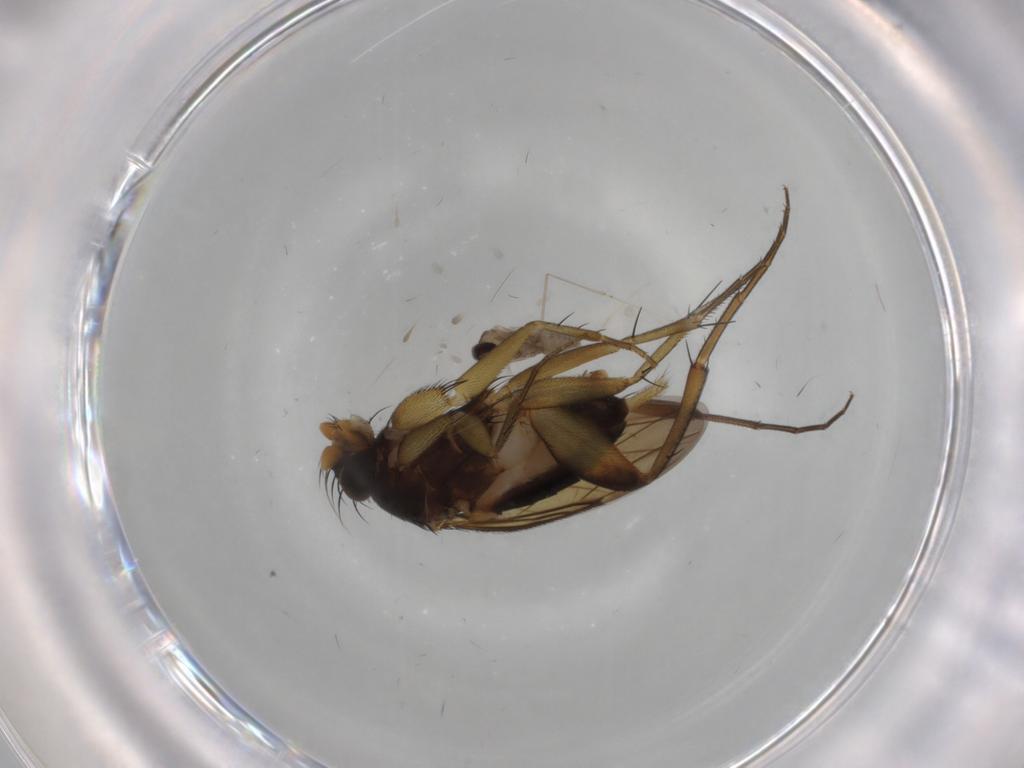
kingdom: Animalia
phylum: Arthropoda
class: Insecta
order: Diptera
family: Phoridae
